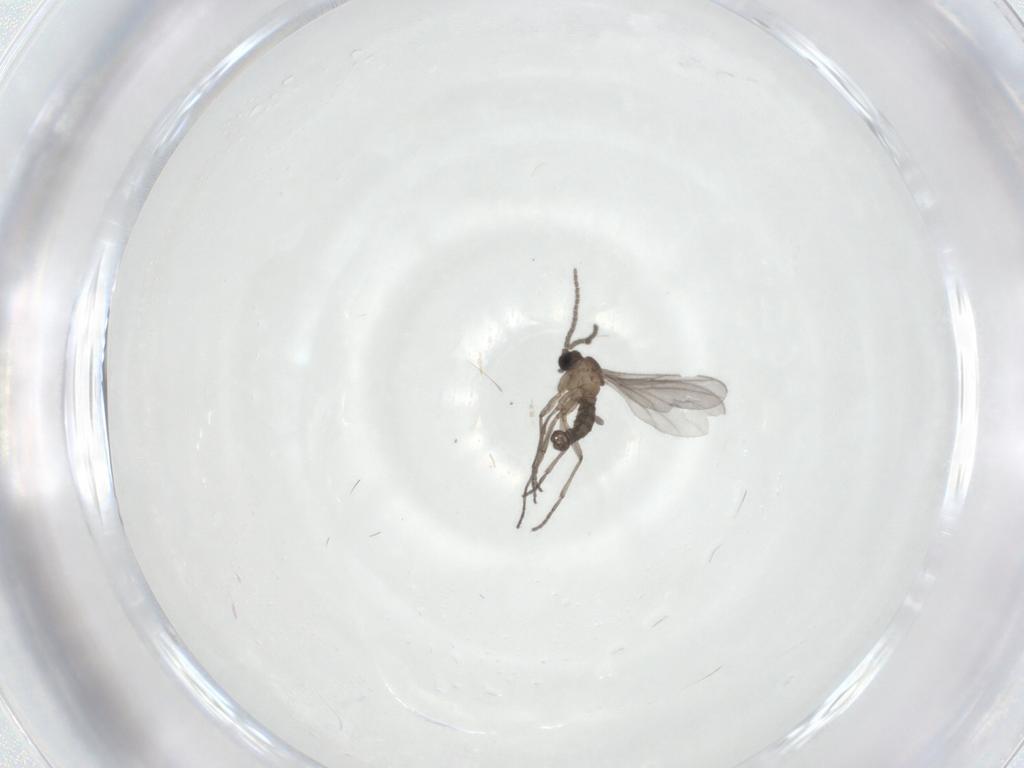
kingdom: Animalia
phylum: Arthropoda
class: Insecta
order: Diptera
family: Sciaridae
